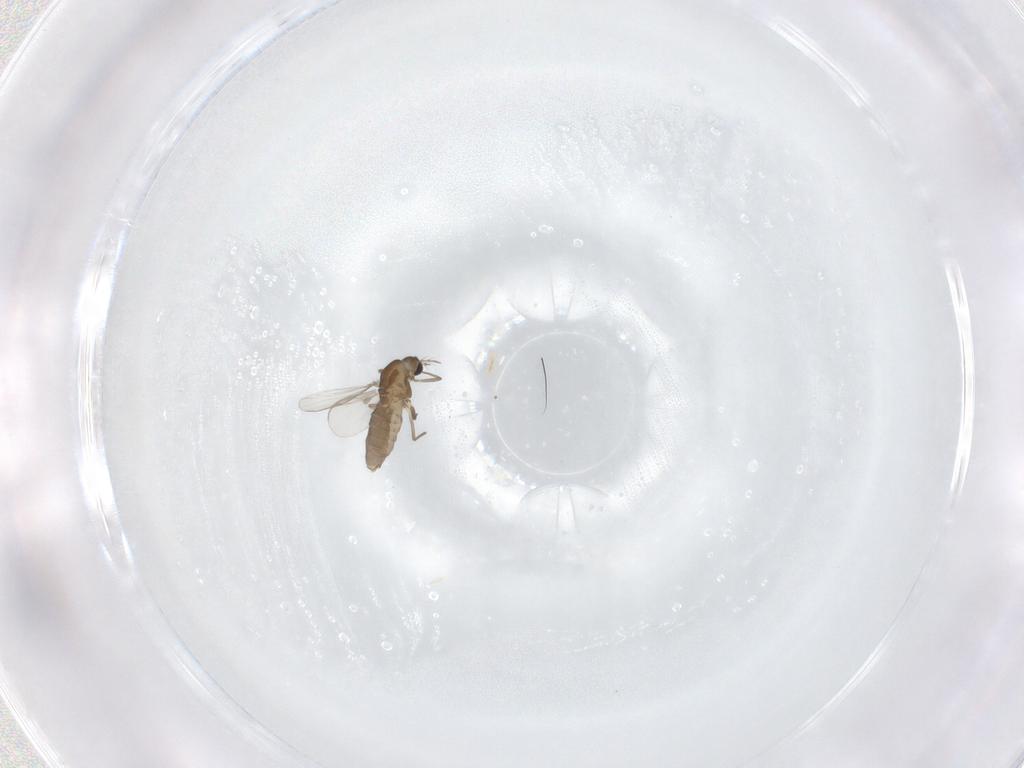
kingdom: Animalia
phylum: Arthropoda
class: Insecta
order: Diptera
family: Chironomidae
